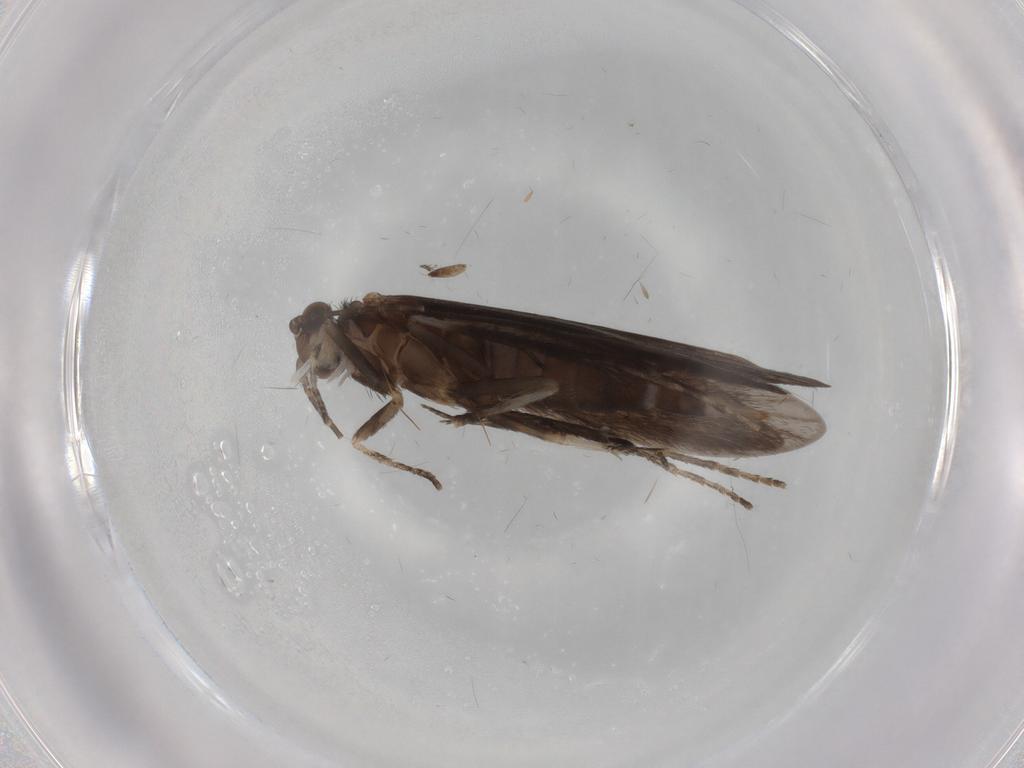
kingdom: Animalia
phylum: Arthropoda
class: Insecta
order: Trichoptera
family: Xiphocentronidae
